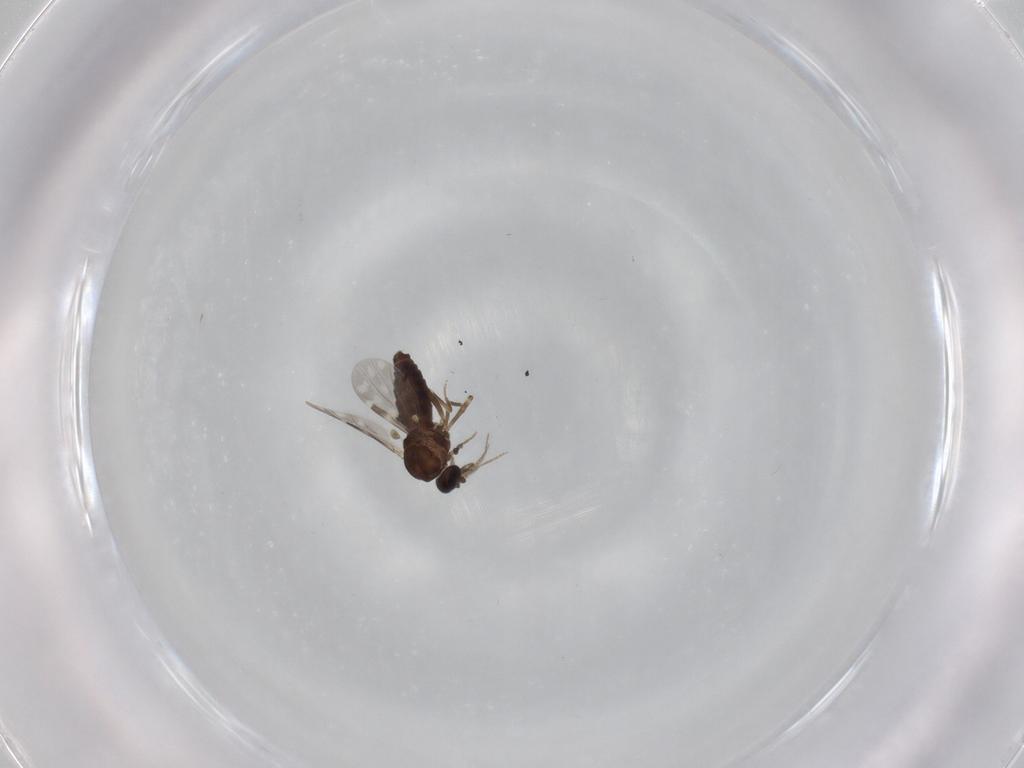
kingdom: Animalia
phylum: Arthropoda
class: Insecta
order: Diptera
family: Ceratopogonidae
